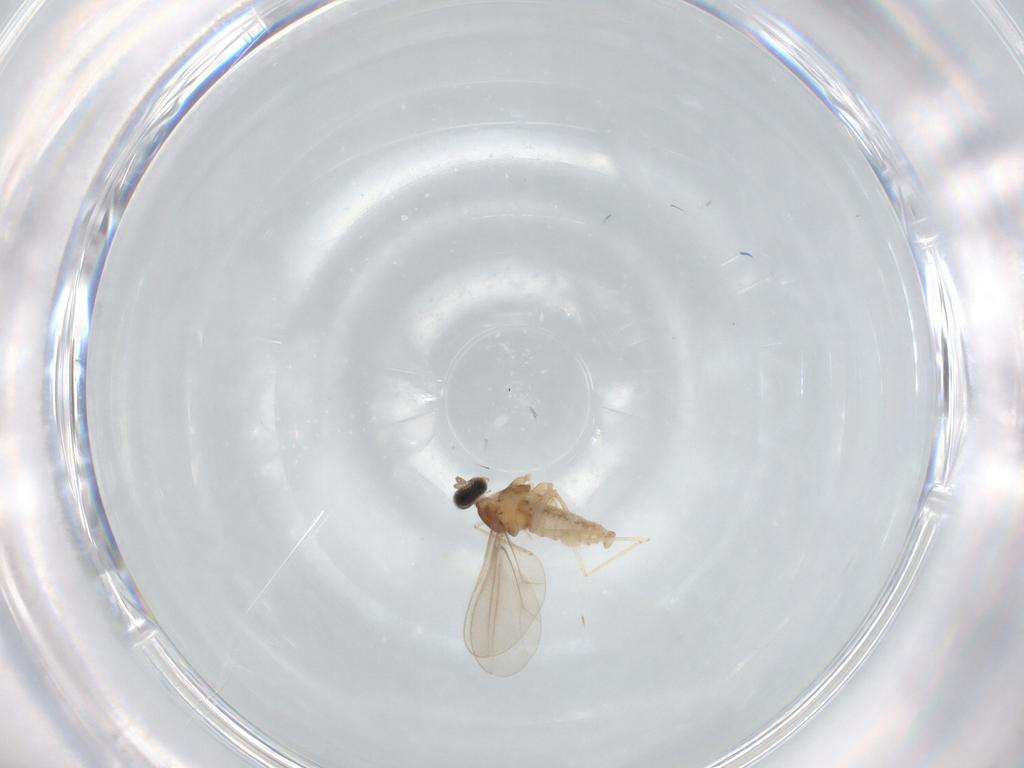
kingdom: Animalia
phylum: Arthropoda
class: Insecta
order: Diptera
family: Cecidomyiidae
